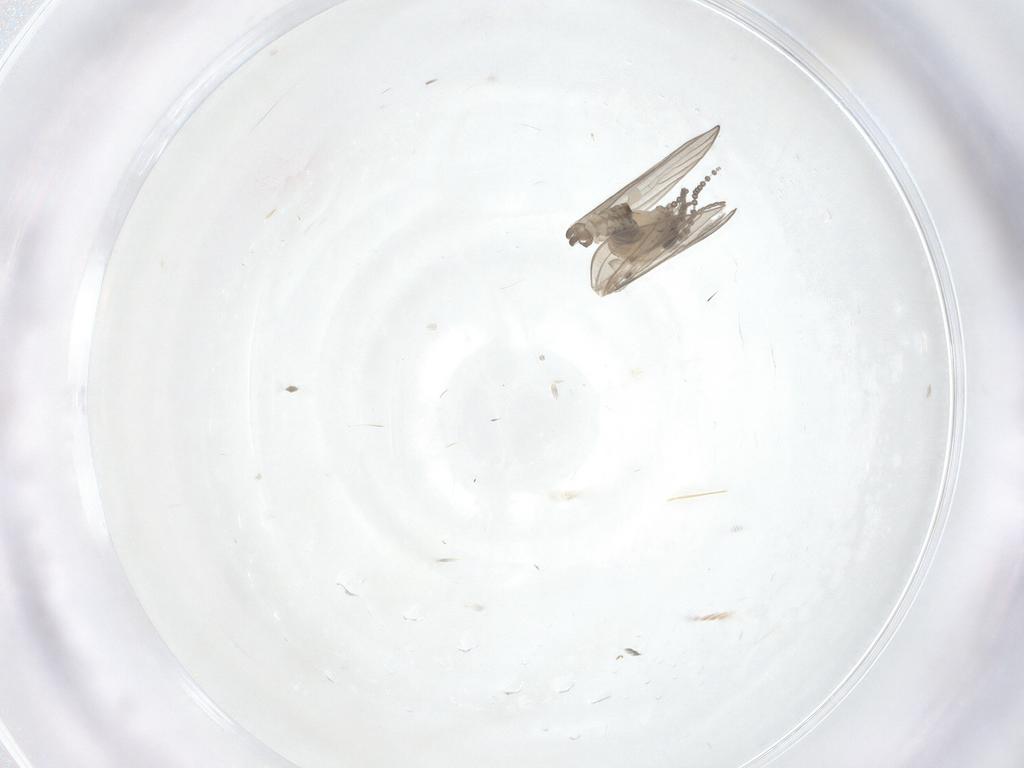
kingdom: Animalia
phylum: Arthropoda
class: Insecta
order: Diptera
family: Psychodidae
